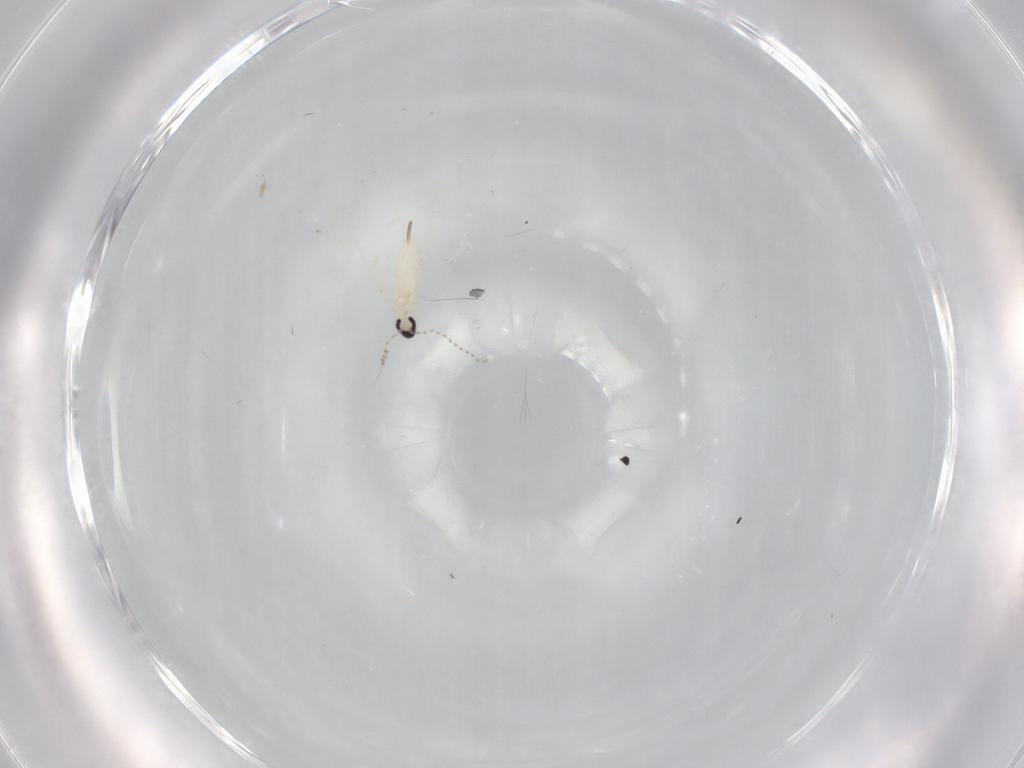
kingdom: Animalia
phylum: Arthropoda
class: Insecta
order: Diptera
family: Cecidomyiidae
